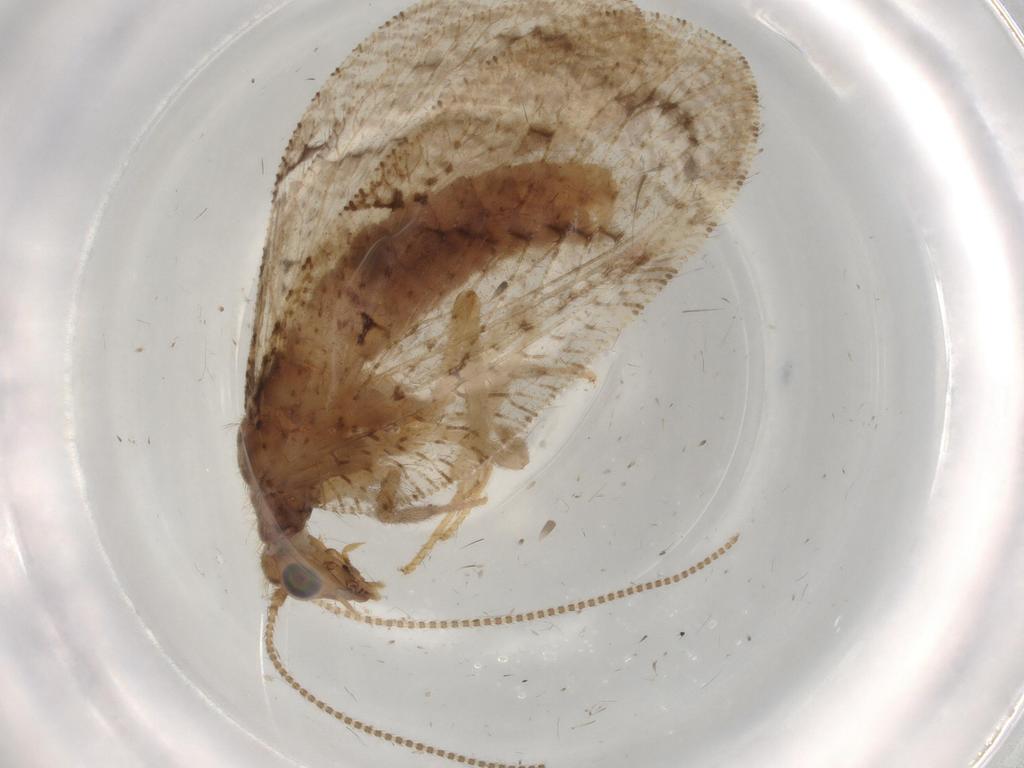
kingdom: Animalia
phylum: Arthropoda
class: Insecta
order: Neuroptera
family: Hemerobiidae
